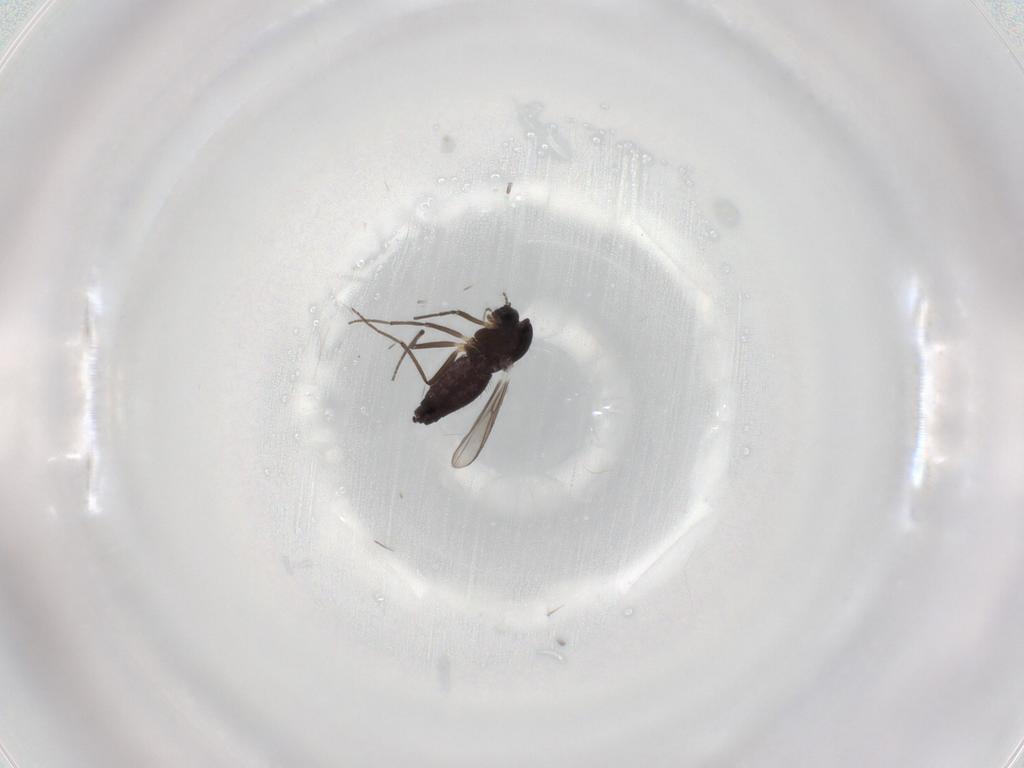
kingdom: Animalia
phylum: Arthropoda
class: Insecta
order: Diptera
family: Chironomidae
